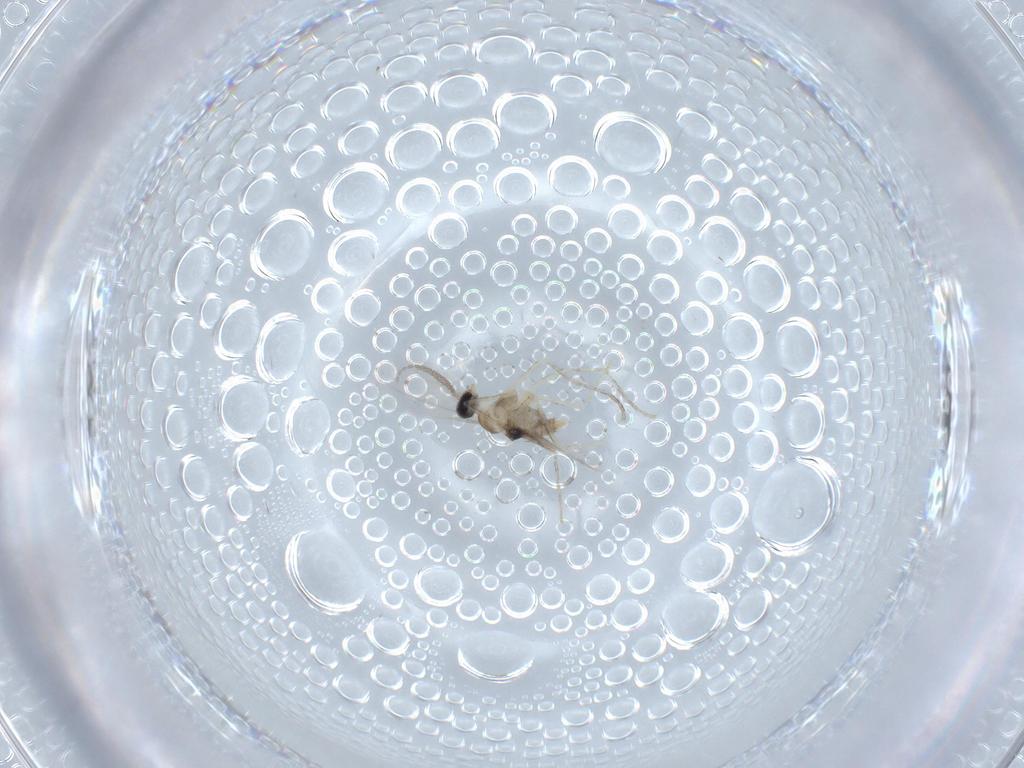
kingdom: Animalia
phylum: Arthropoda
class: Insecta
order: Diptera
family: Cecidomyiidae
